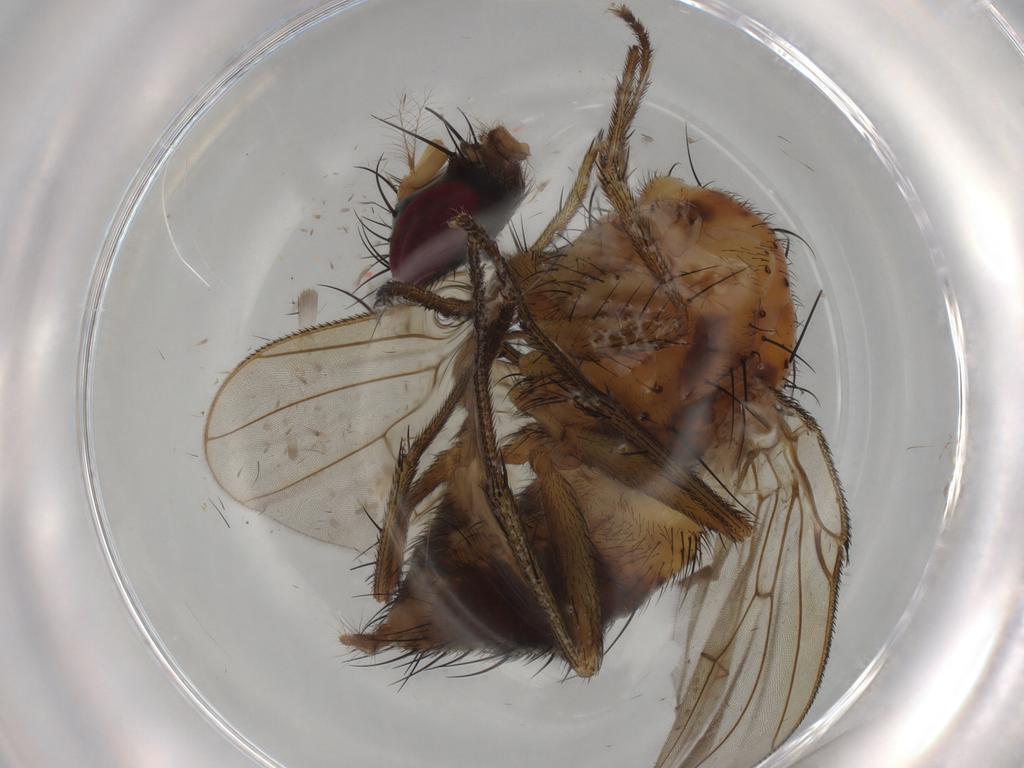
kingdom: Animalia
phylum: Arthropoda
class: Insecta
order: Diptera
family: Muscidae
